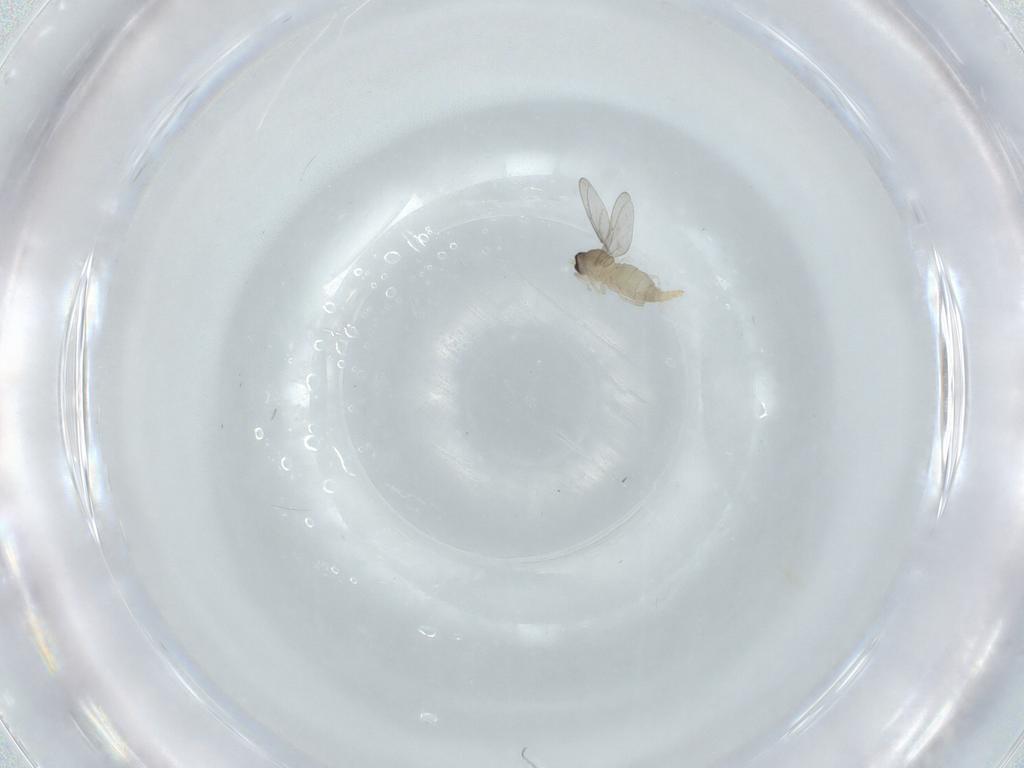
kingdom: Animalia
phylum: Arthropoda
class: Insecta
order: Diptera
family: Cecidomyiidae
